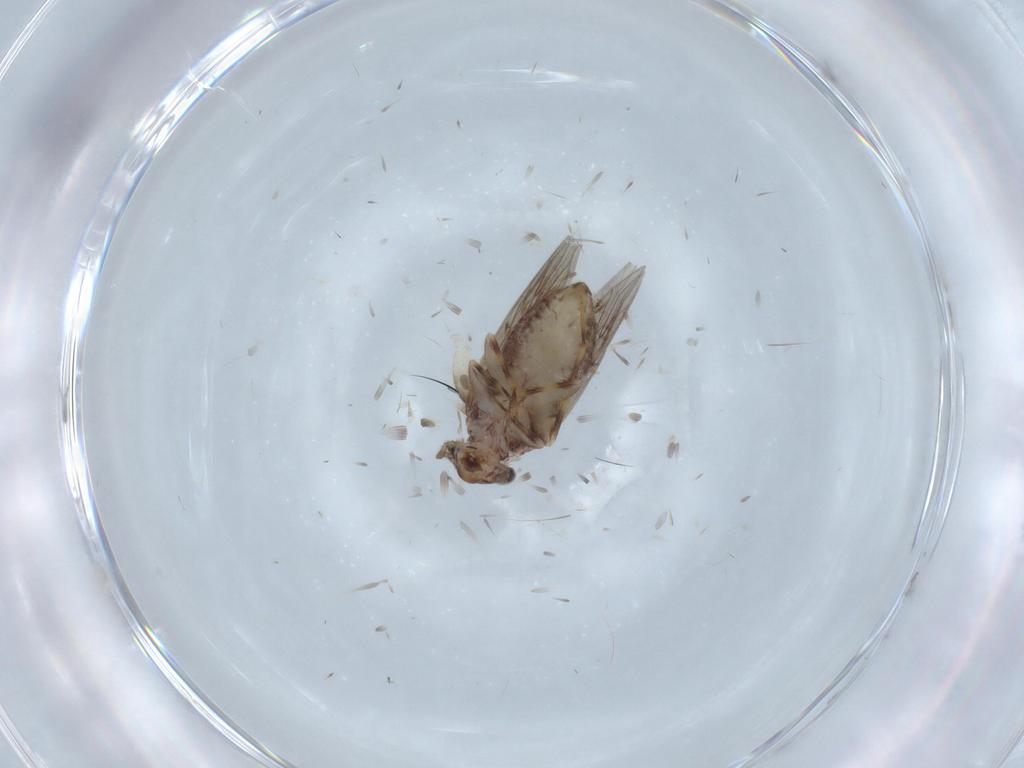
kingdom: Animalia
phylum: Arthropoda
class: Insecta
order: Psocodea
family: Lepidopsocidae
